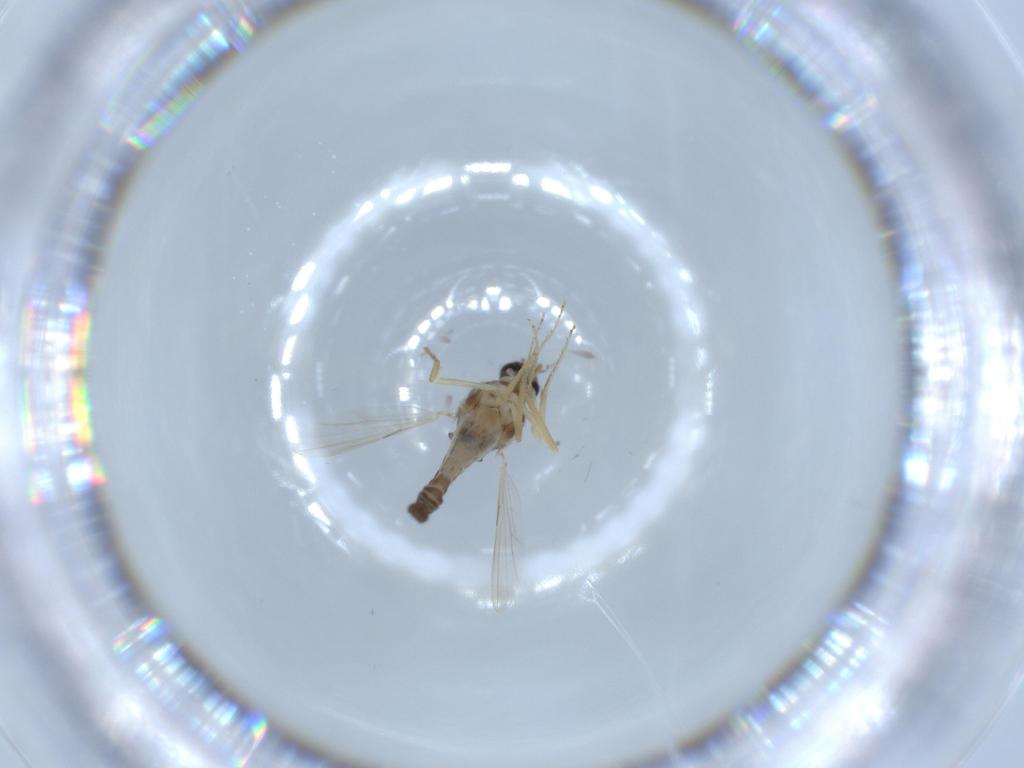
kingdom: Animalia
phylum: Arthropoda
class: Insecta
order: Diptera
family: Ceratopogonidae
